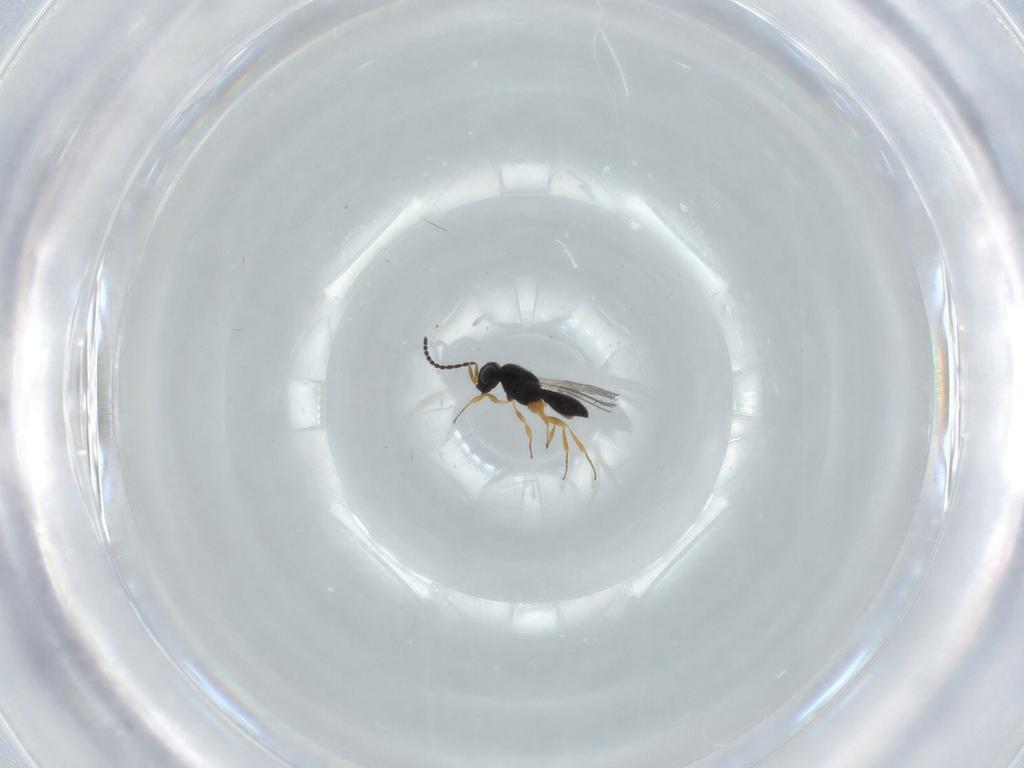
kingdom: Animalia
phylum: Arthropoda
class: Insecta
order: Hymenoptera
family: Scelionidae
